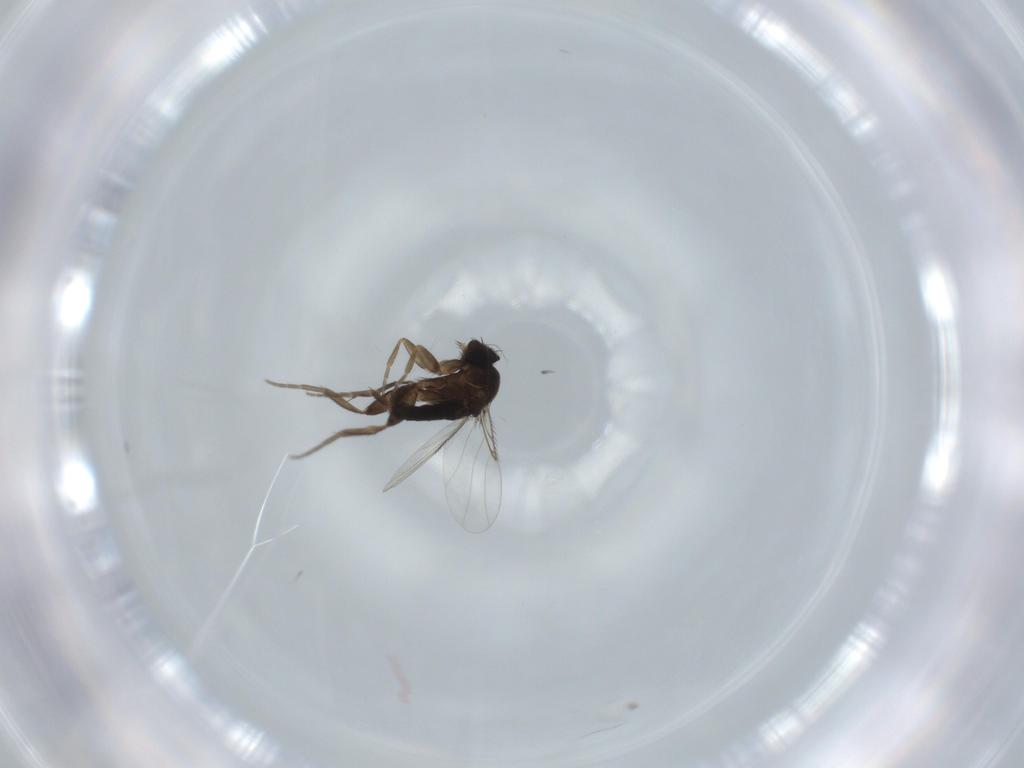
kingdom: Animalia
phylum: Arthropoda
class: Insecta
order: Diptera
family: Phoridae
